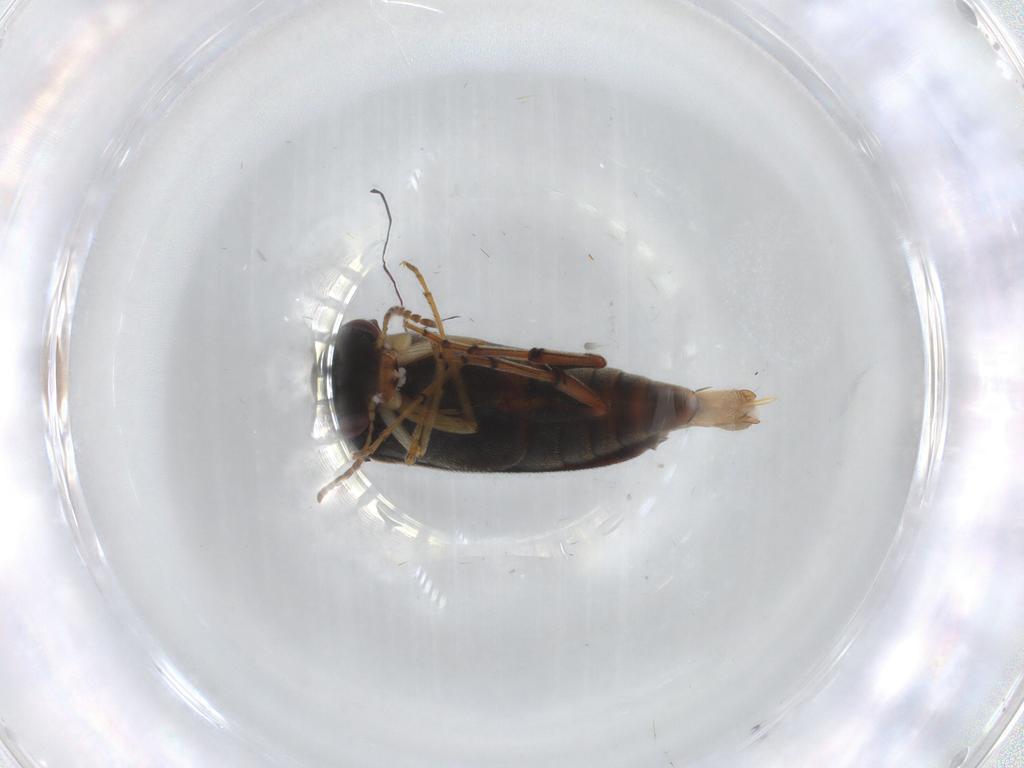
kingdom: Animalia
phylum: Arthropoda
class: Insecta
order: Coleoptera
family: Mordellidae
